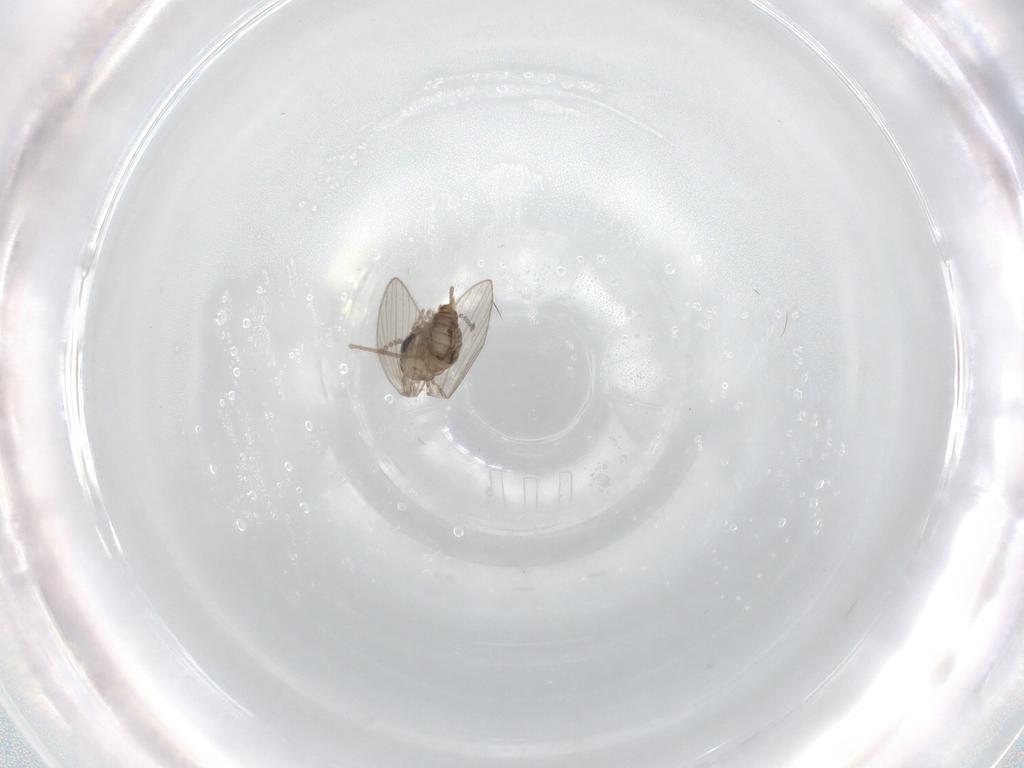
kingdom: Animalia
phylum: Arthropoda
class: Insecta
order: Diptera
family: Psychodidae
